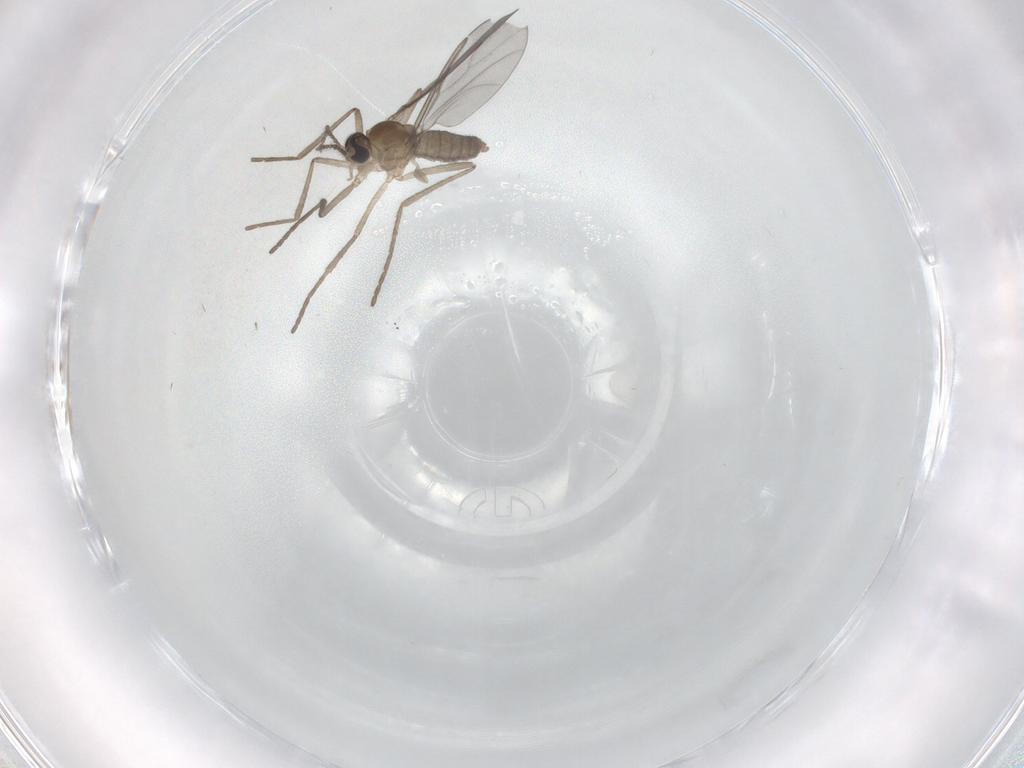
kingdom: Animalia
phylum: Arthropoda
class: Insecta
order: Diptera
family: Cecidomyiidae
